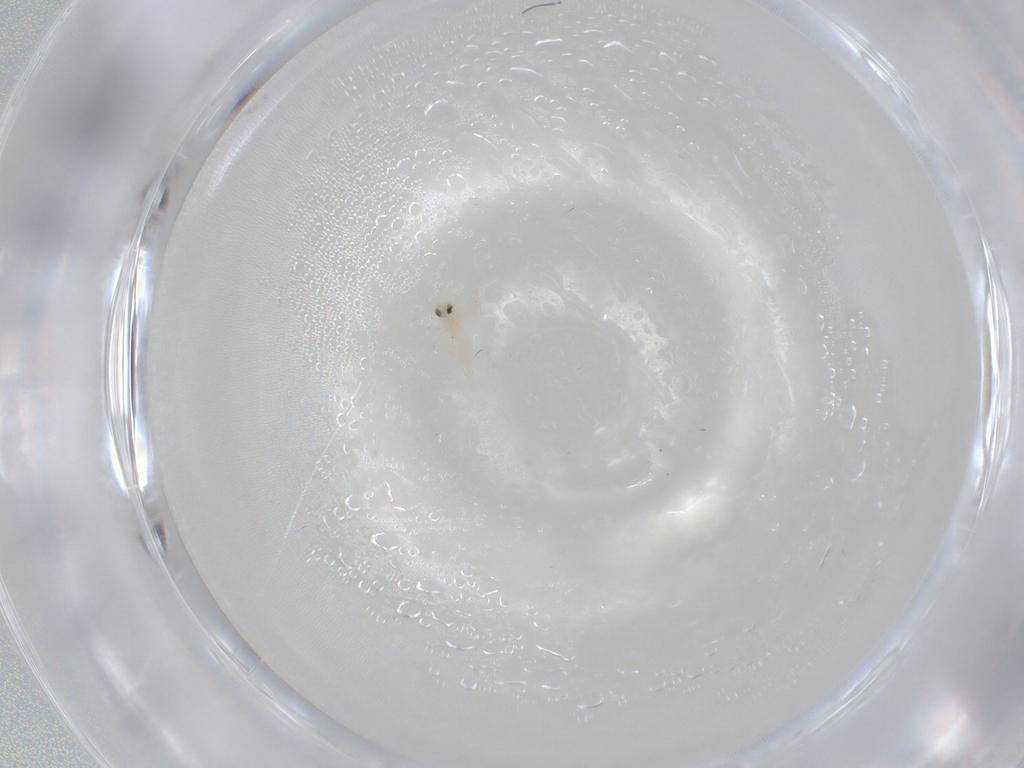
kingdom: Animalia
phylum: Arthropoda
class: Insecta
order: Hemiptera
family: Aleyrodidae
